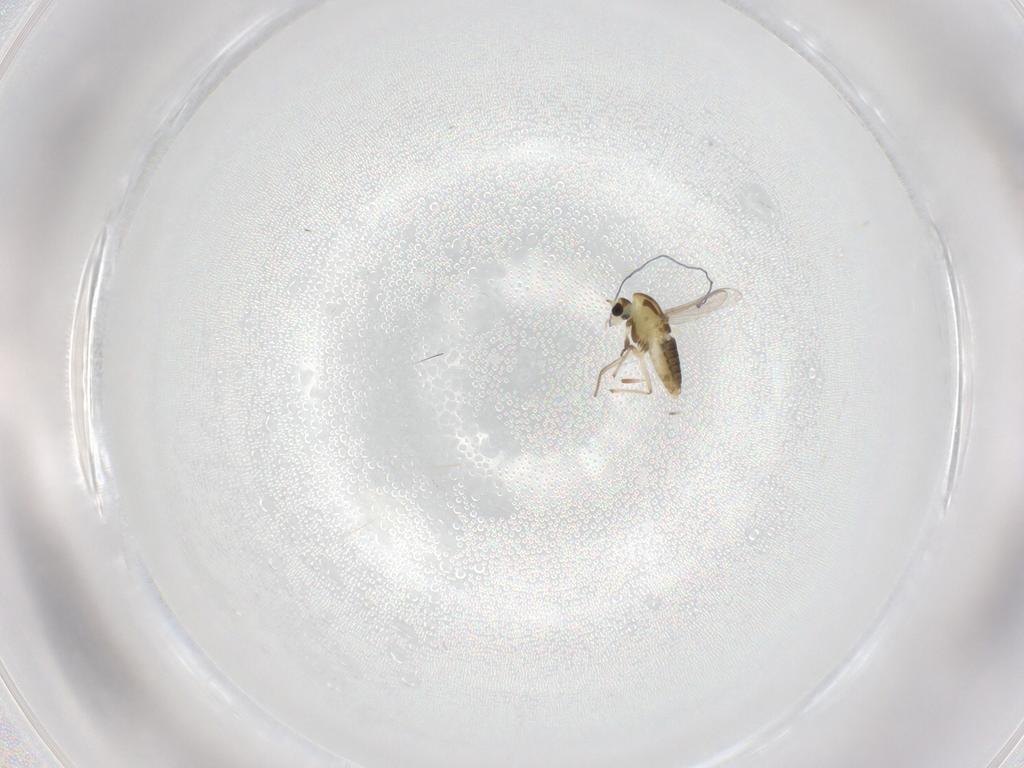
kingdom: Animalia
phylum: Arthropoda
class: Insecta
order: Diptera
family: Chironomidae
